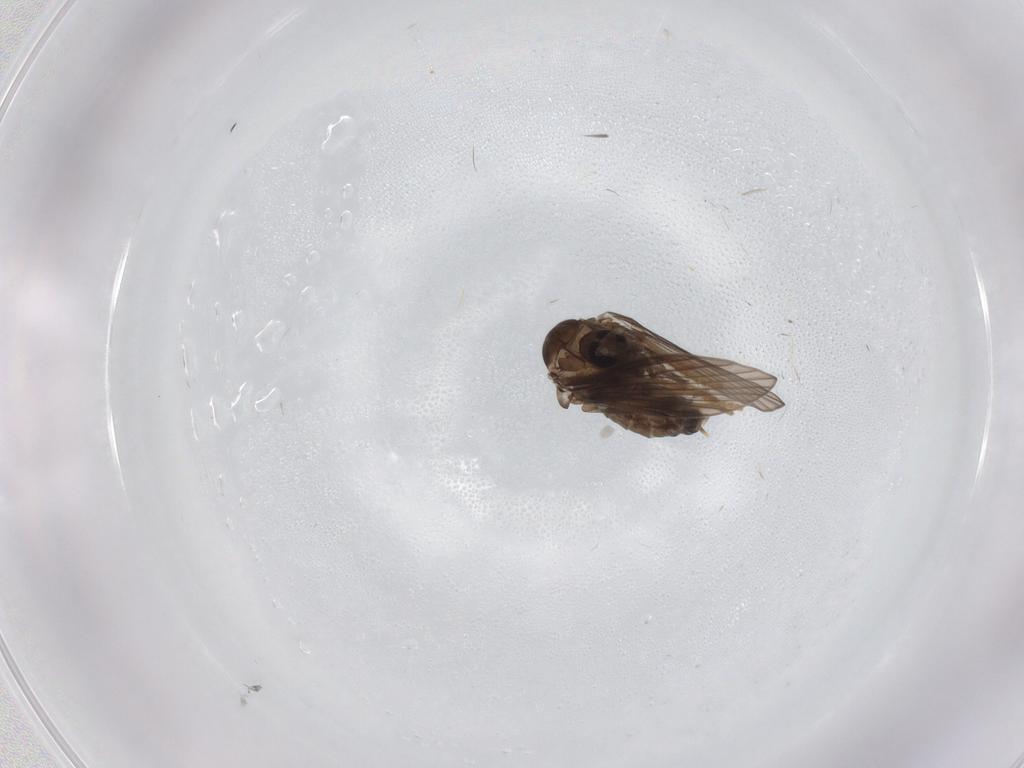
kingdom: Animalia
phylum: Arthropoda
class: Insecta
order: Diptera
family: Psychodidae
